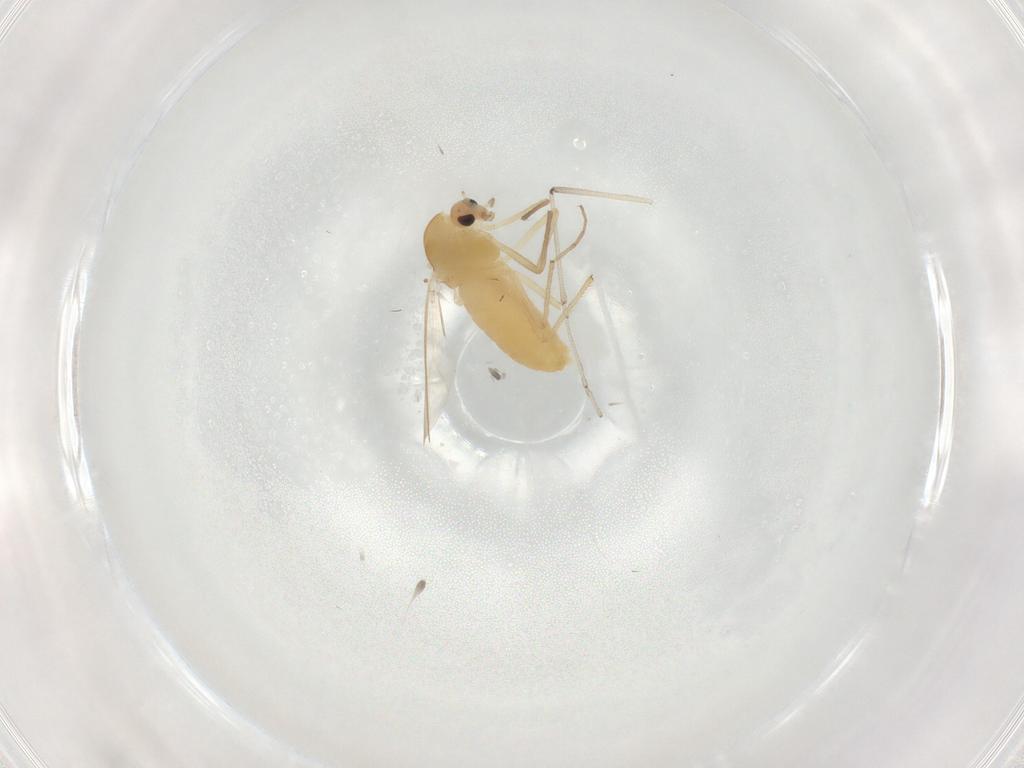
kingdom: Animalia
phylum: Arthropoda
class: Insecta
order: Diptera
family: Chironomidae
